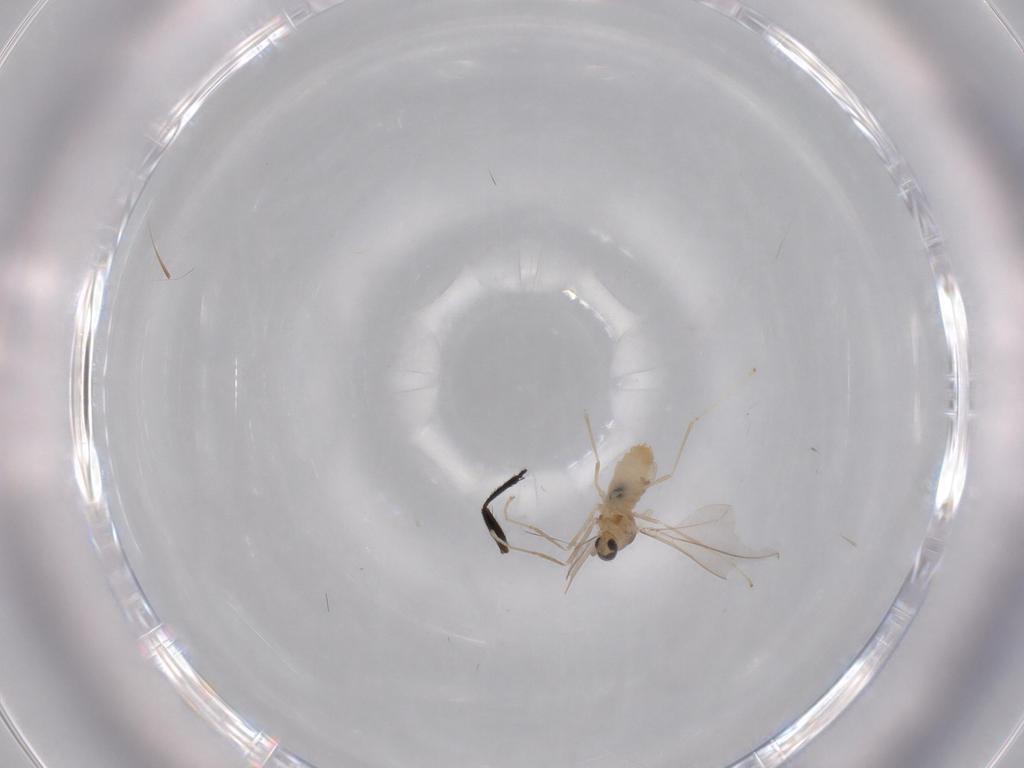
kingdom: Animalia
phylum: Arthropoda
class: Insecta
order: Diptera
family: Cecidomyiidae
